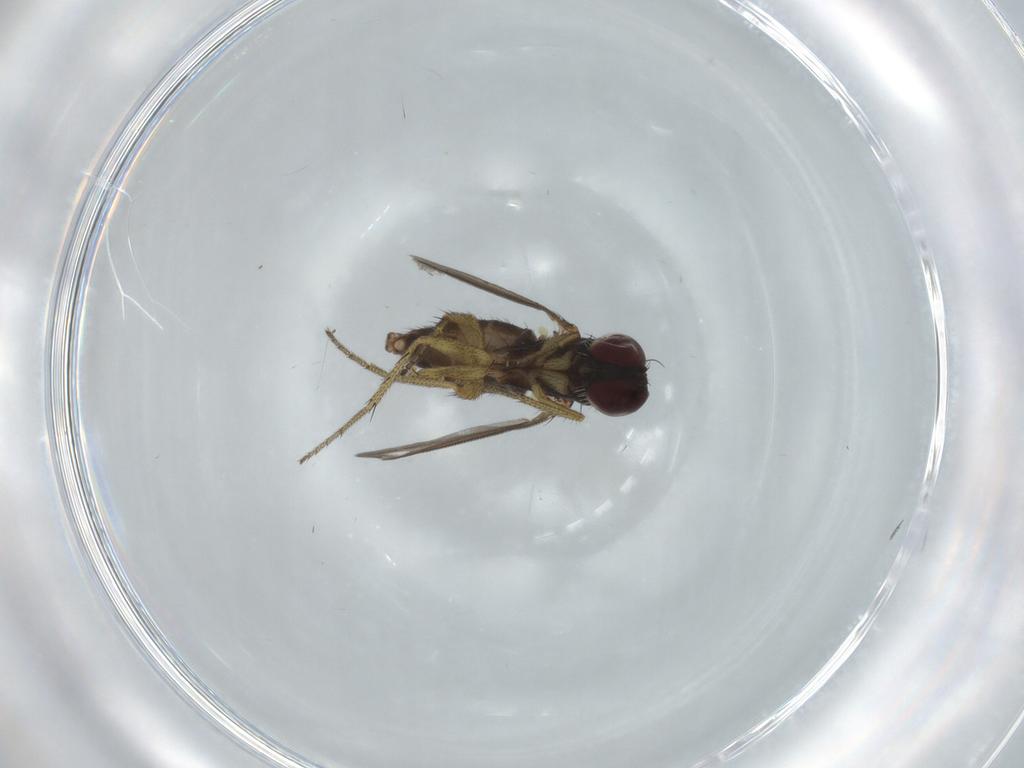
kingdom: Animalia
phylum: Arthropoda
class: Insecta
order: Diptera
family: Dolichopodidae
